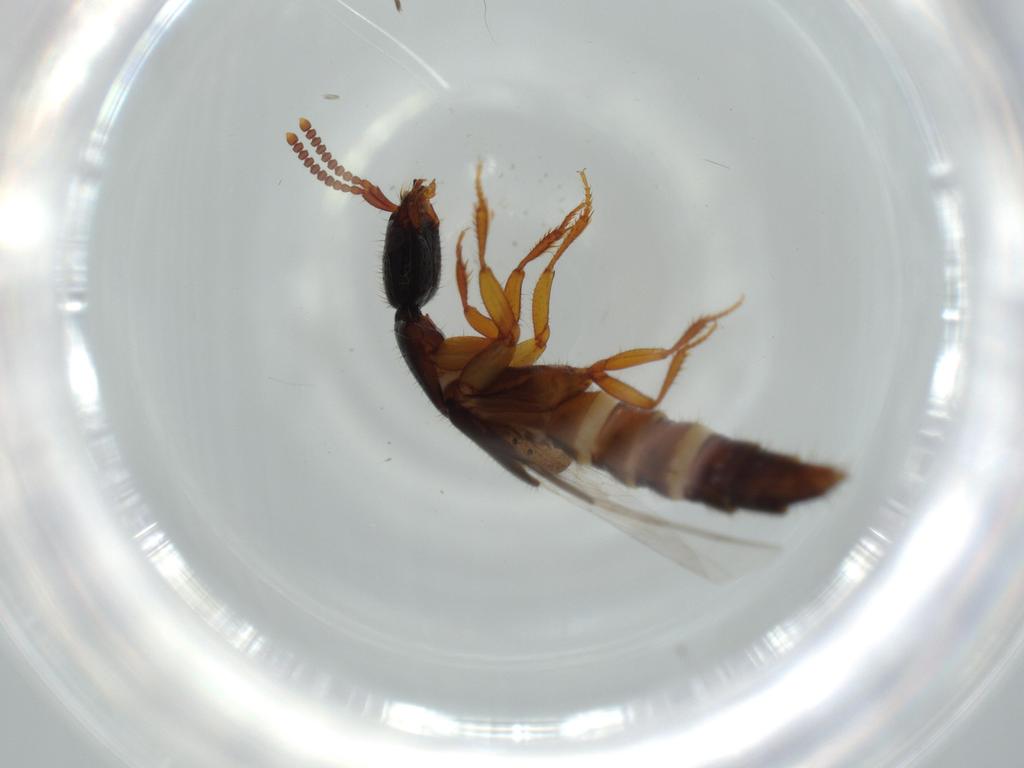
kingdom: Animalia
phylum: Arthropoda
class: Insecta
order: Coleoptera
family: Staphylinidae
